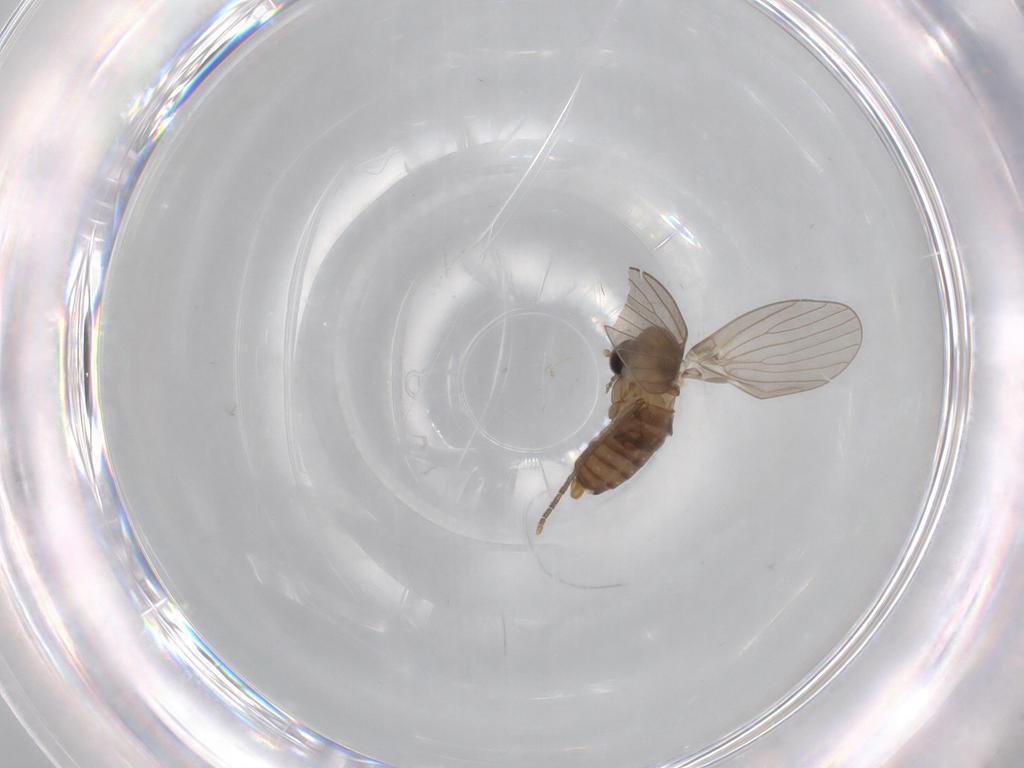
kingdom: Animalia
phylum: Arthropoda
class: Insecta
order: Diptera
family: Psychodidae
